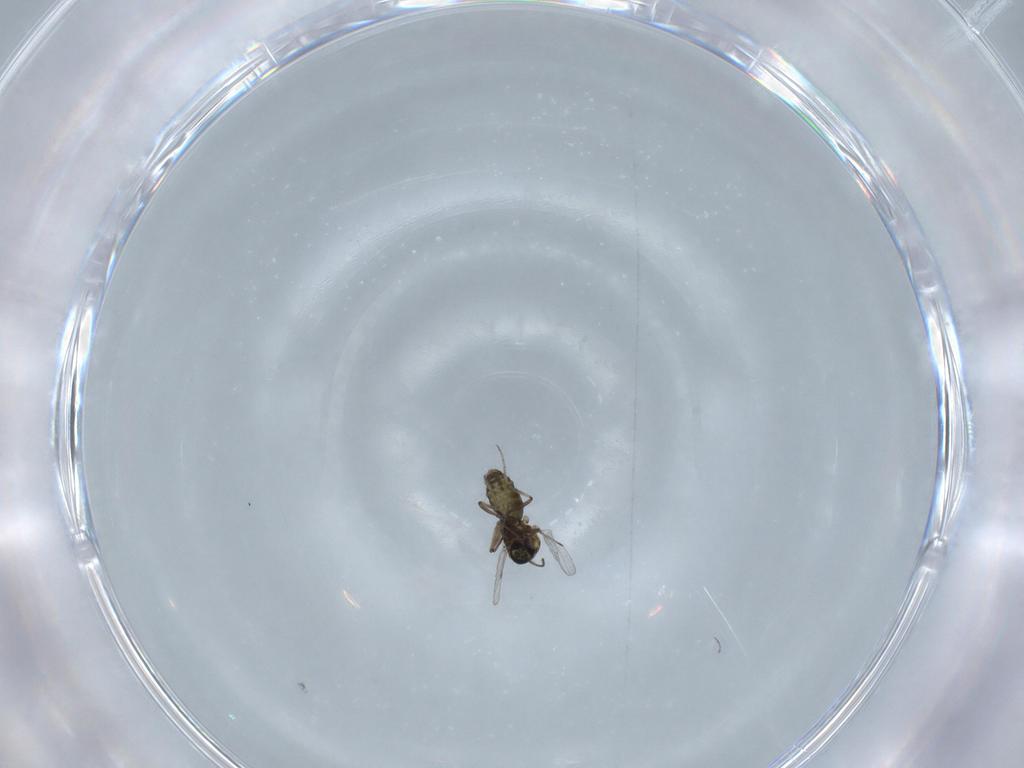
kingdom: Animalia
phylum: Arthropoda
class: Insecta
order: Diptera
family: Ceratopogonidae
